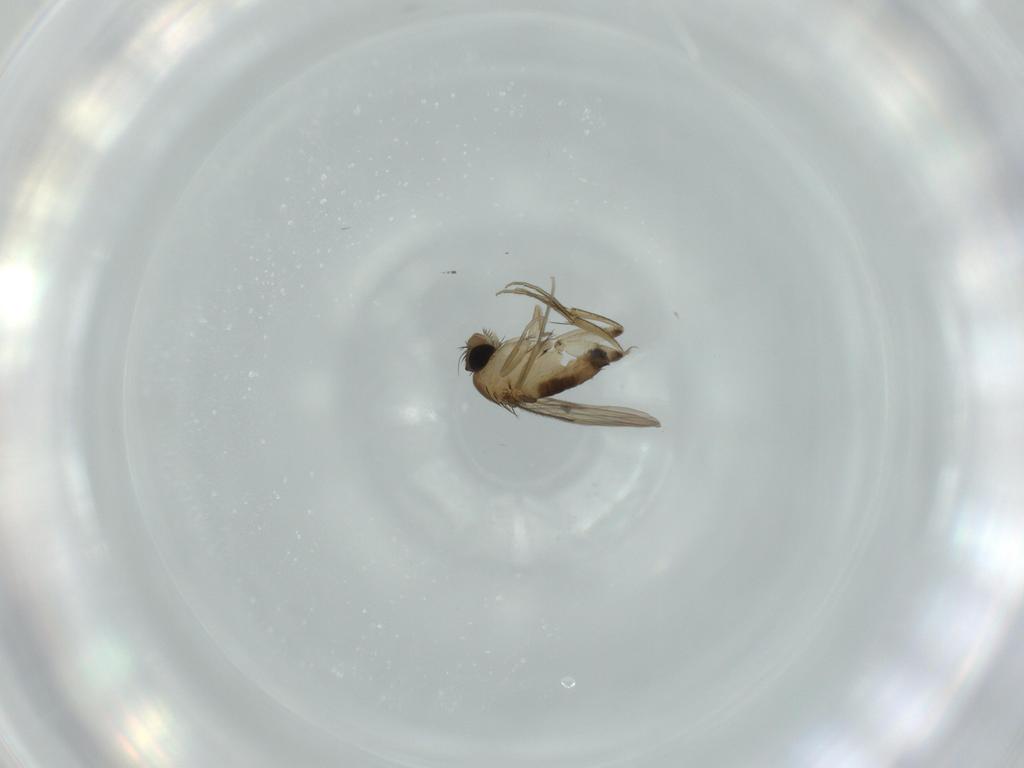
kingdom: Animalia
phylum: Arthropoda
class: Insecta
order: Diptera
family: Phoridae
